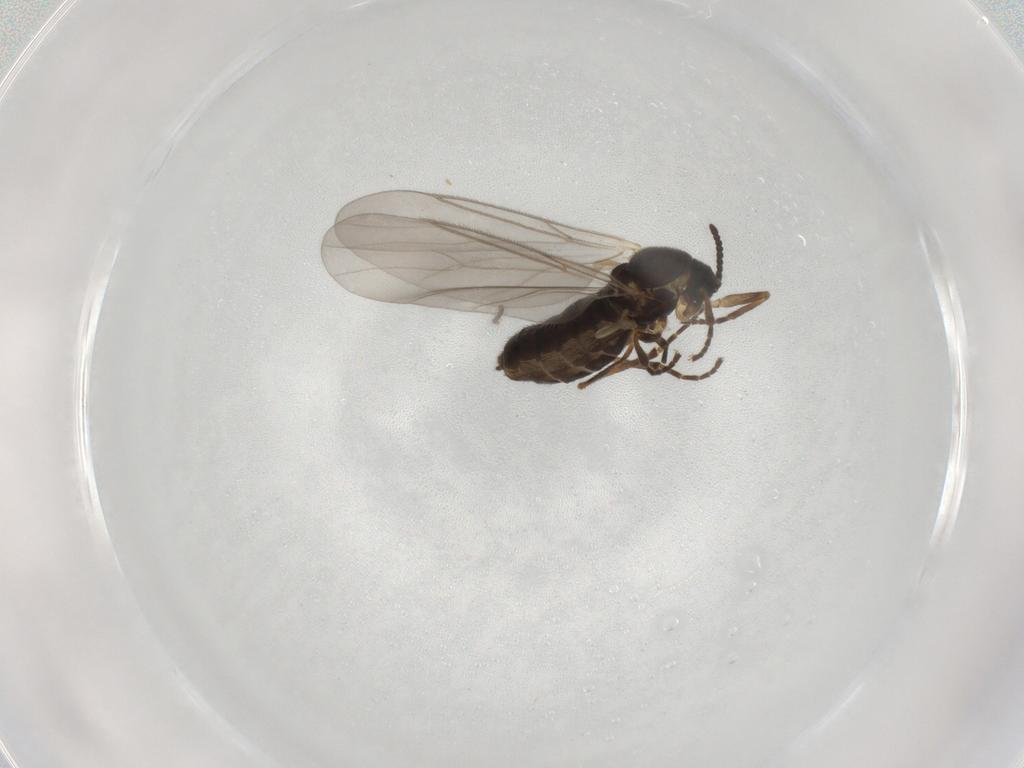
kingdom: Animalia
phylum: Arthropoda
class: Insecta
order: Diptera
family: Scatopsidae
